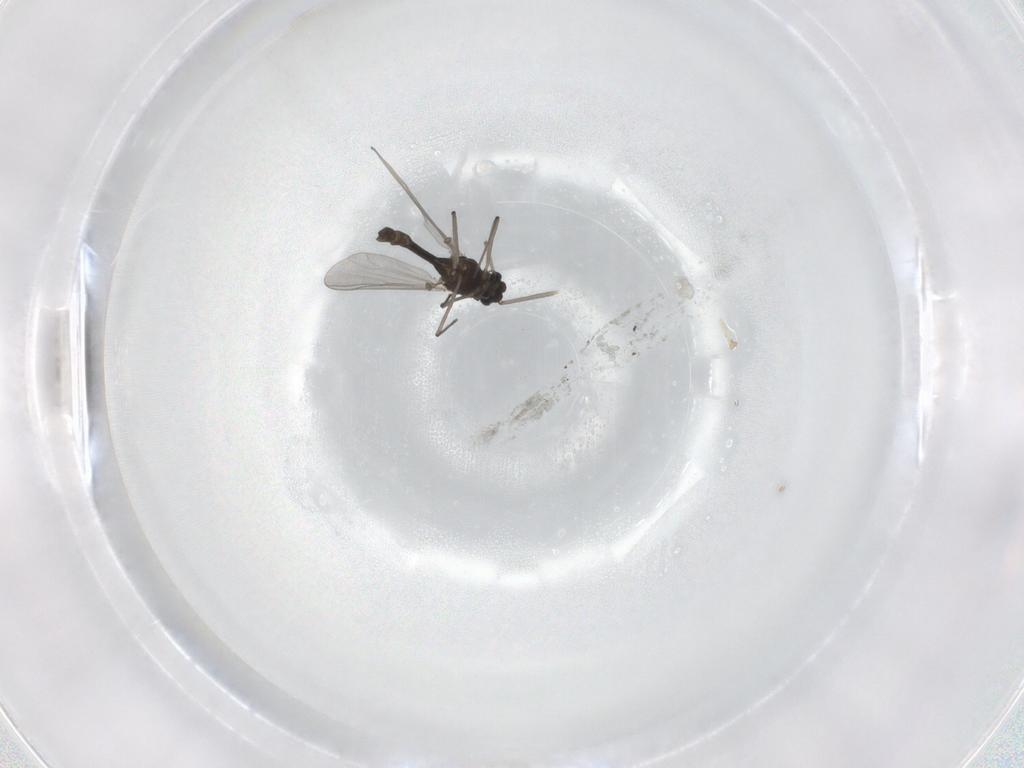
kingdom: Animalia
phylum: Arthropoda
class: Insecta
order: Diptera
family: Chironomidae
